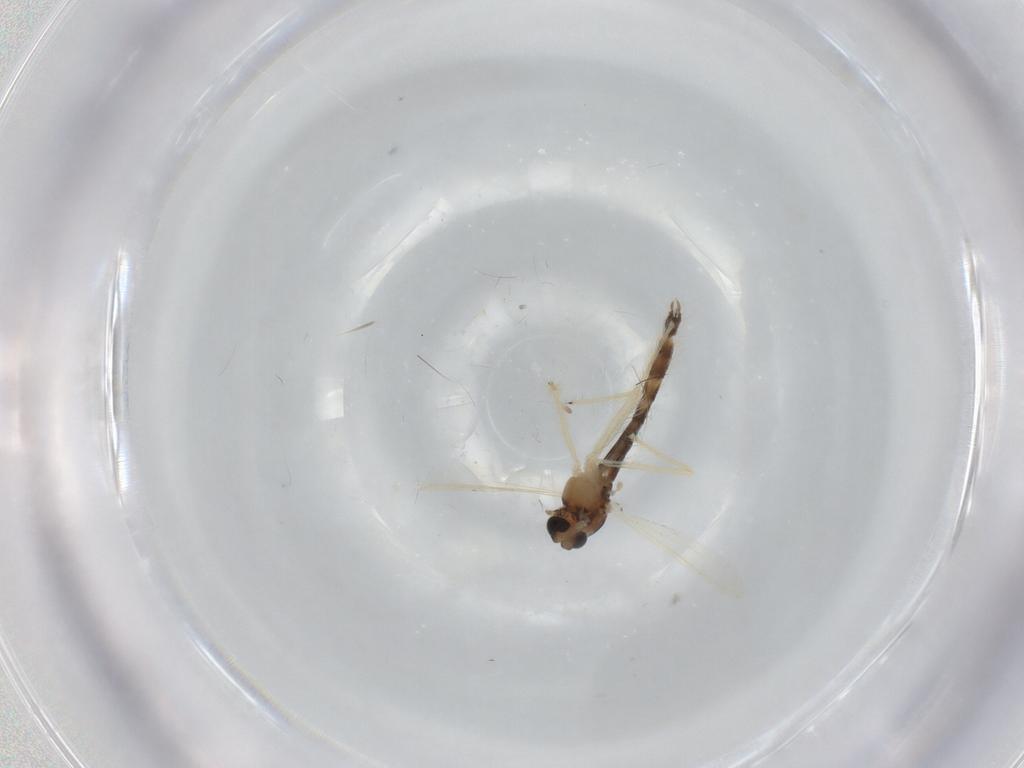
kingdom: Animalia
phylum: Arthropoda
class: Insecta
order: Diptera
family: Chironomidae
